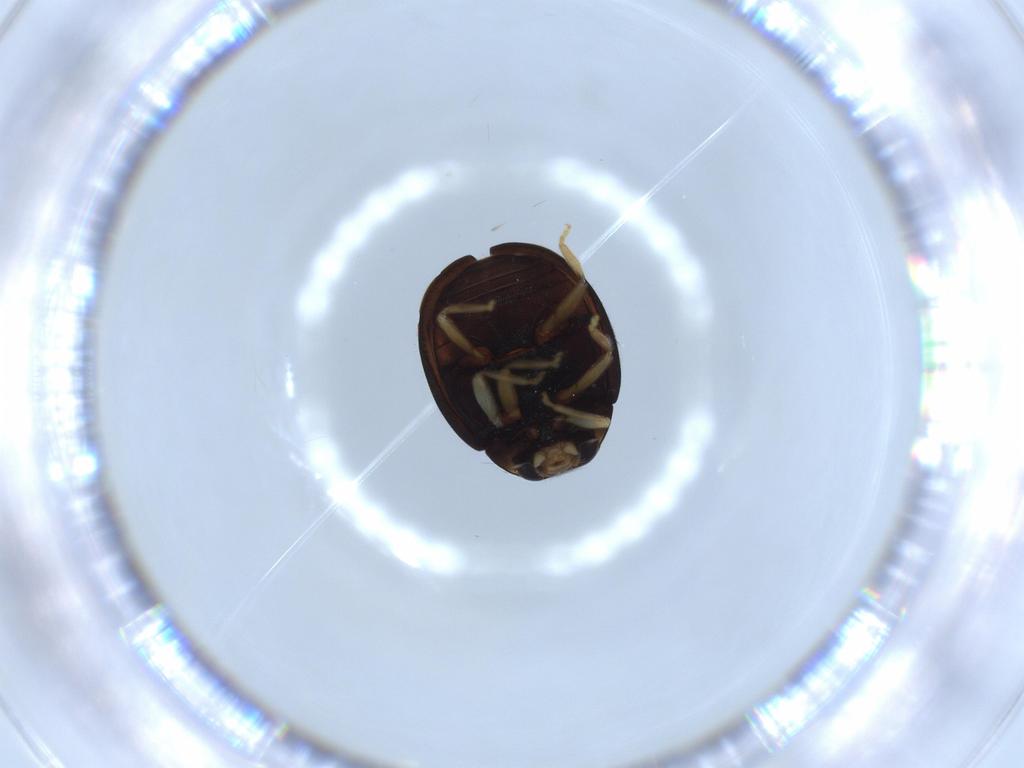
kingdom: Animalia
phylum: Arthropoda
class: Insecta
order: Coleoptera
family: Coccinellidae
